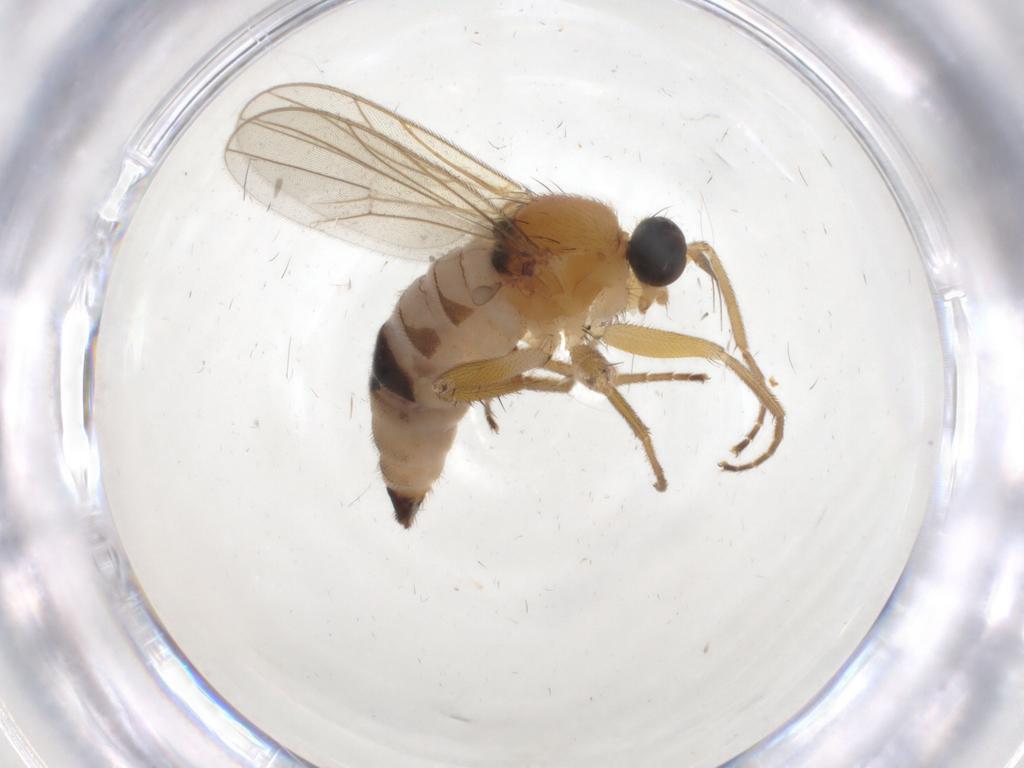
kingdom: Animalia
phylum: Arthropoda
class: Insecta
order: Diptera
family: Hybotidae
